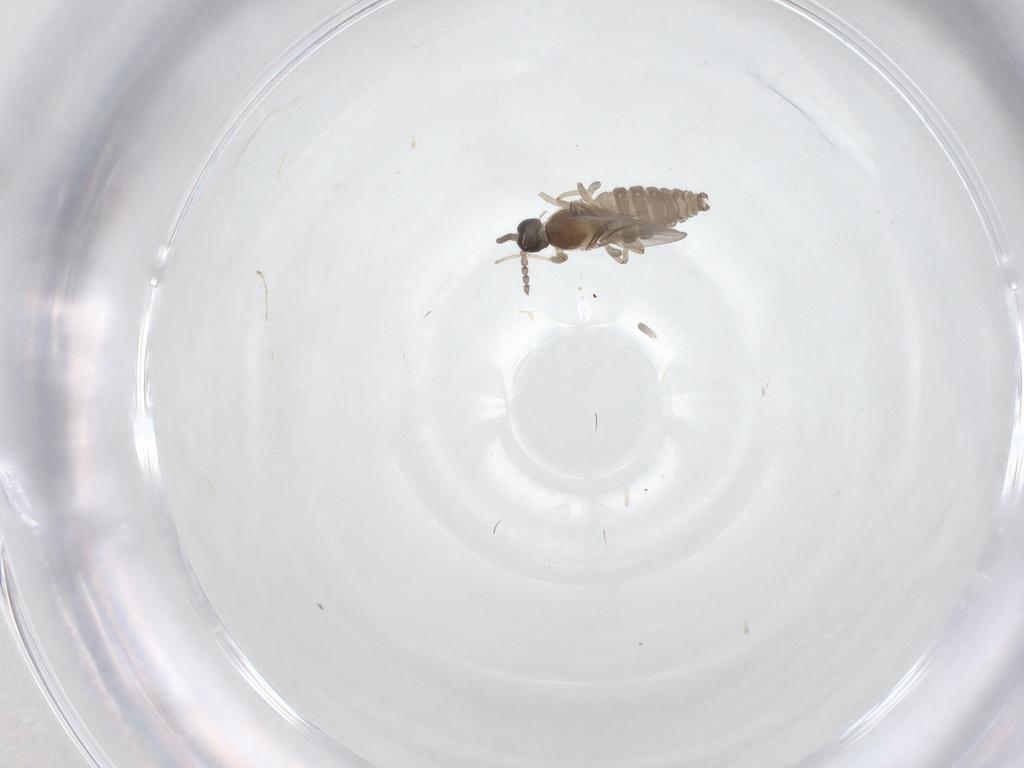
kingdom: Animalia
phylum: Arthropoda
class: Insecta
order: Diptera
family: Cecidomyiidae
